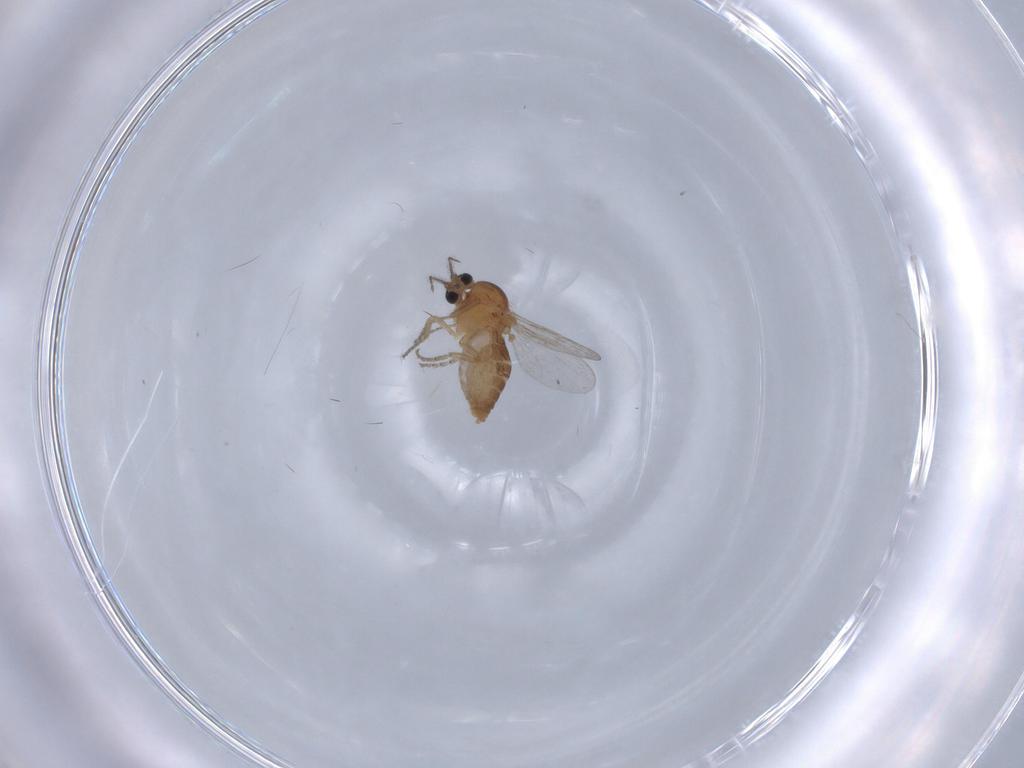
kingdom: Animalia
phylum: Arthropoda
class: Insecta
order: Diptera
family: Ceratopogonidae
